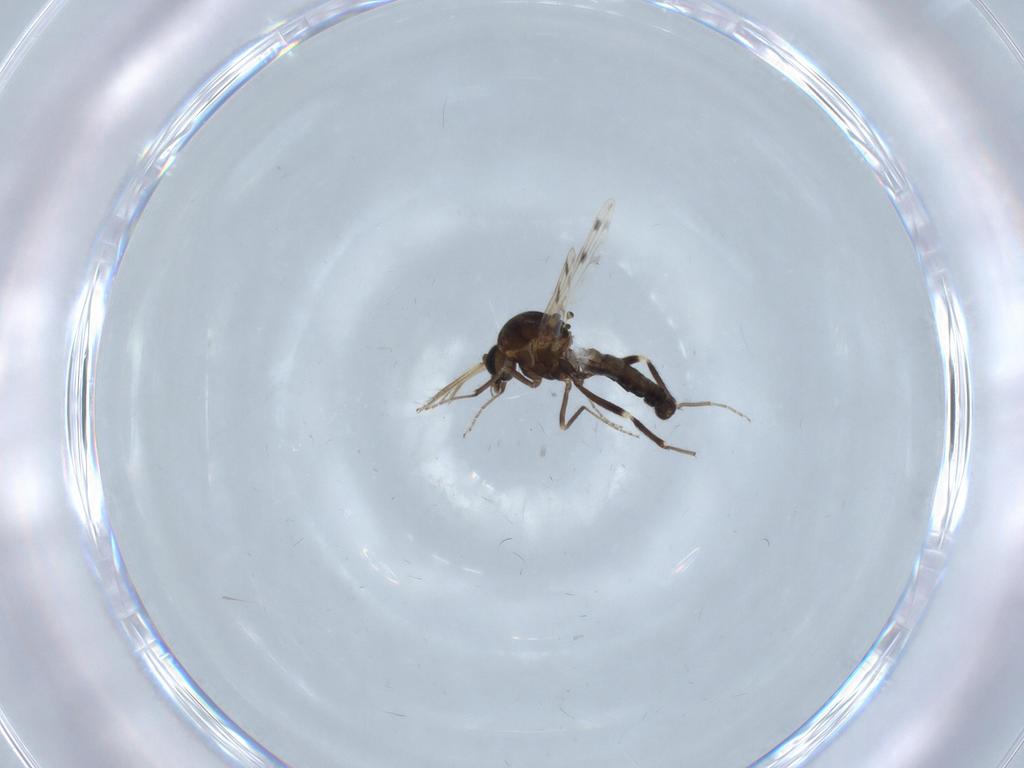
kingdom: Animalia
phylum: Arthropoda
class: Insecta
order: Diptera
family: Ceratopogonidae
